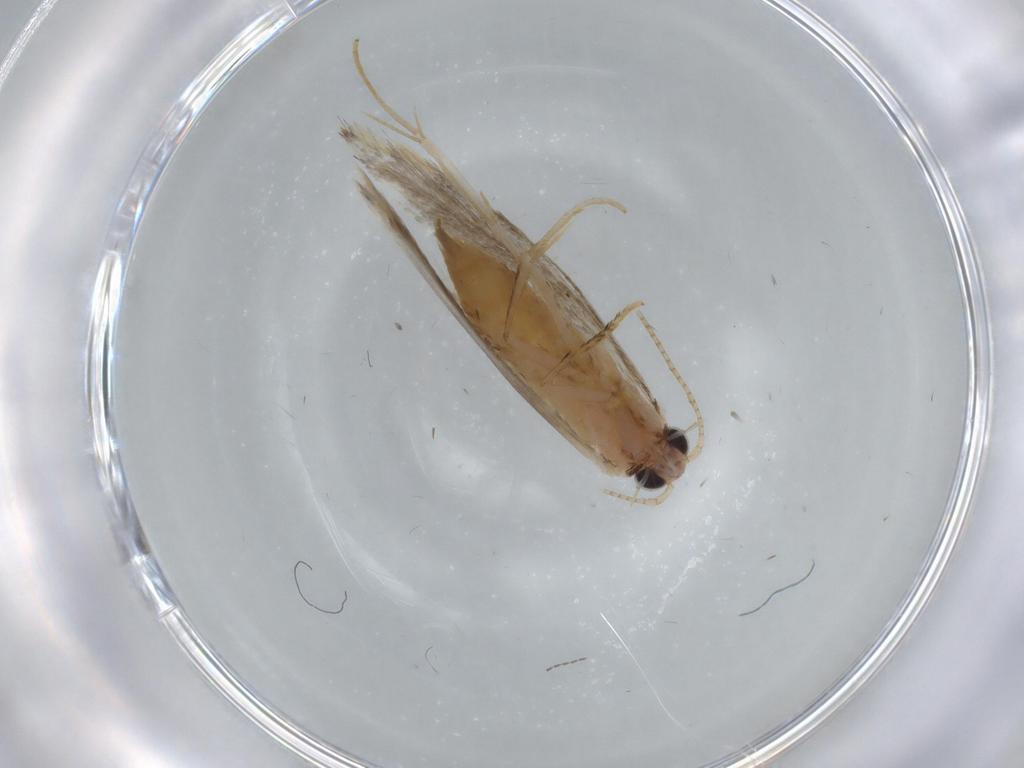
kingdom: Animalia
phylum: Arthropoda
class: Insecta
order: Lepidoptera
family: Tineidae
